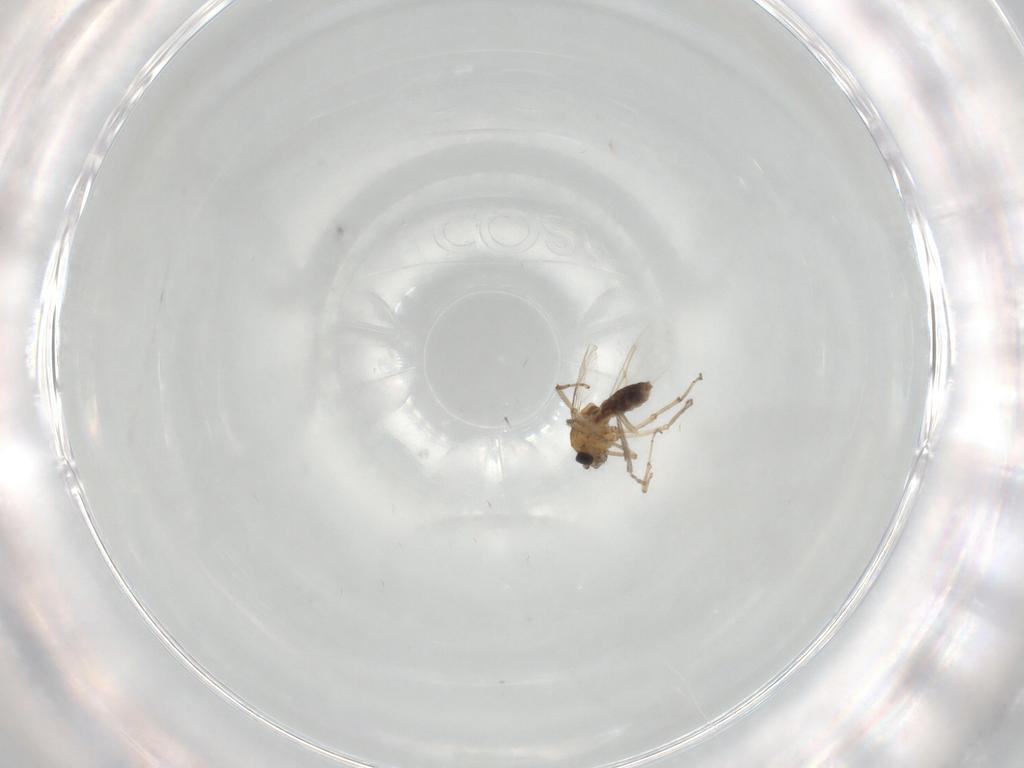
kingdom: Animalia
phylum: Arthropoda
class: Insecta
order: Diptera
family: Ceratopogonidae
